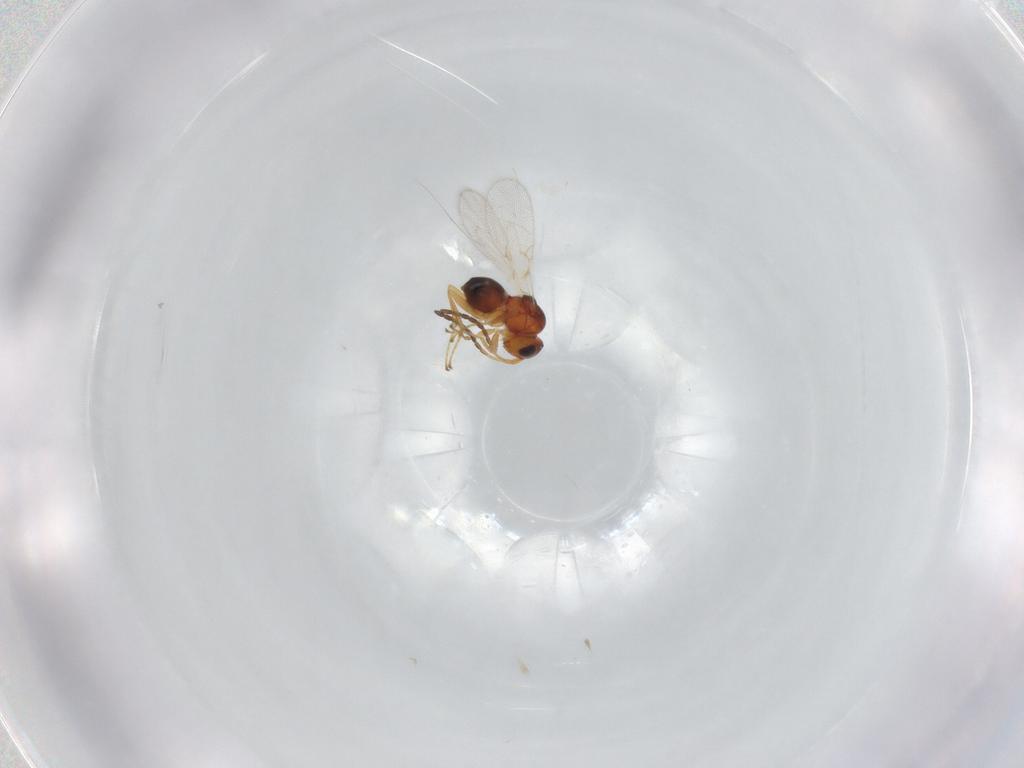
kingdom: Animalia
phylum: Arthropoda
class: Insecta
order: Hymenoptera
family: Figitidae
